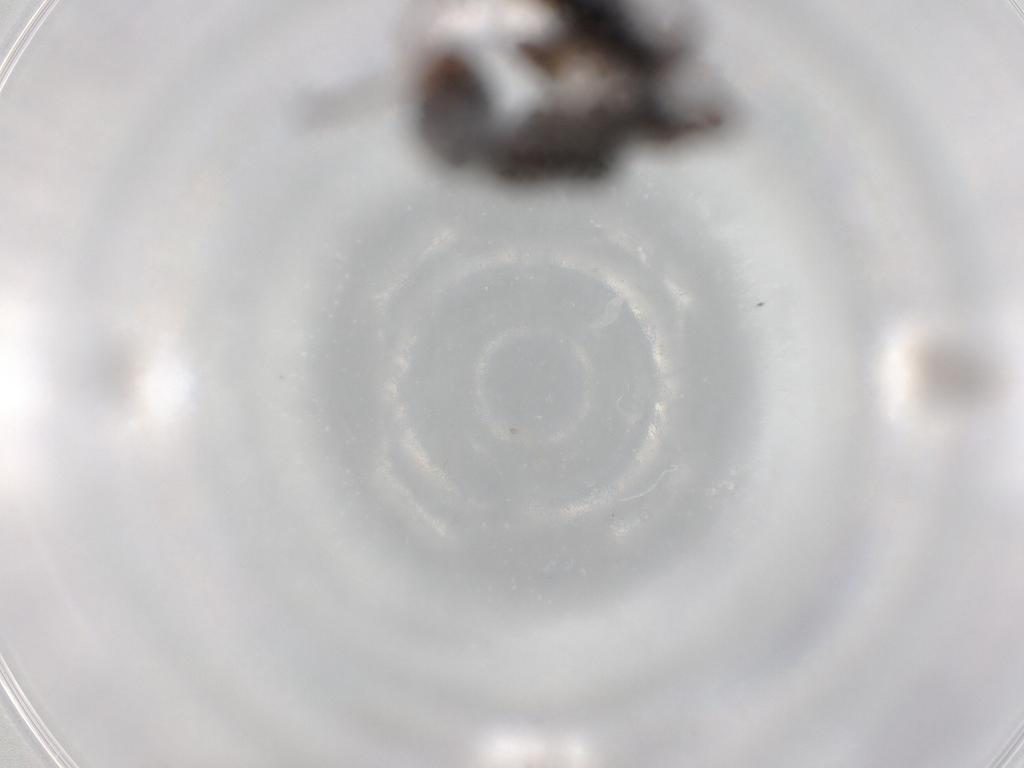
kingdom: Animalia
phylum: Arthropoda
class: Insecta
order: Hymenoptera
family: Formicidae
